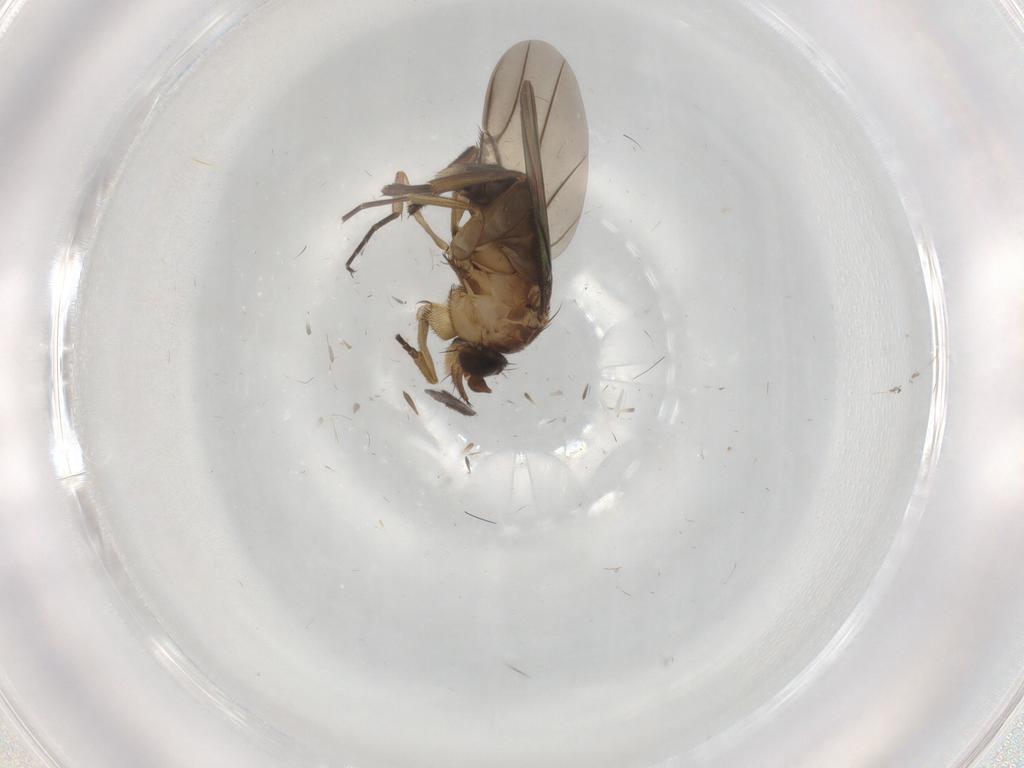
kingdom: Animalia
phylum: Arthropoda
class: Insecta
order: Diptera
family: Phoridae
